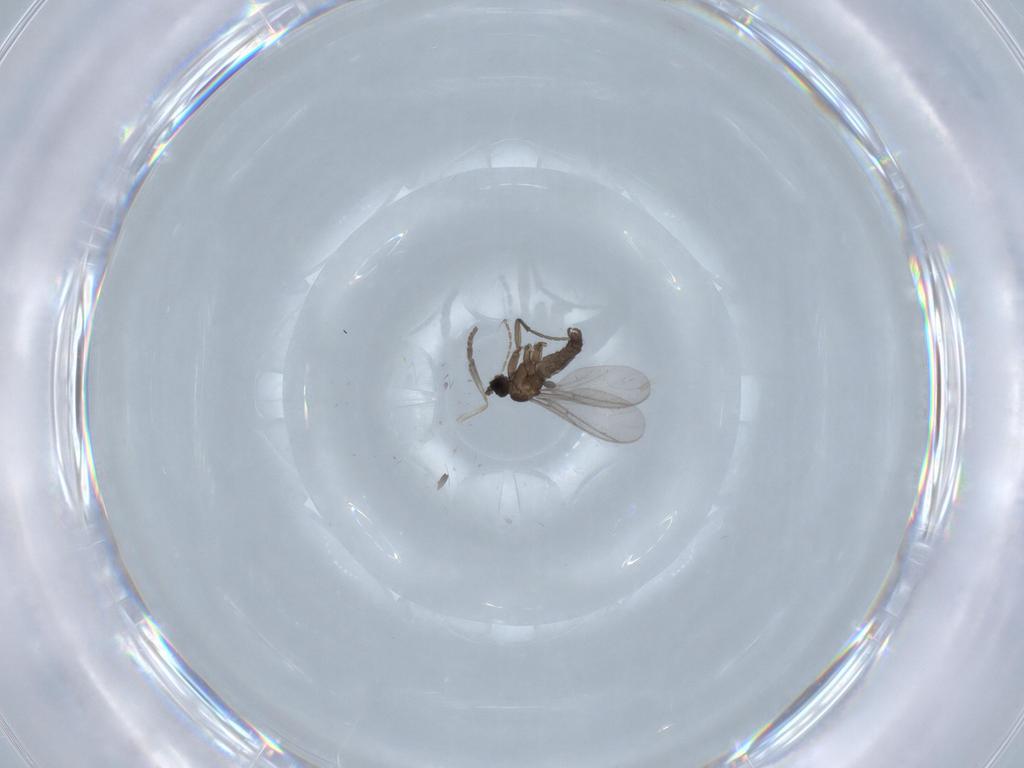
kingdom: Animalia
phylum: Arthropoda
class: Insecta
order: Diptera
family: Sciaridae
